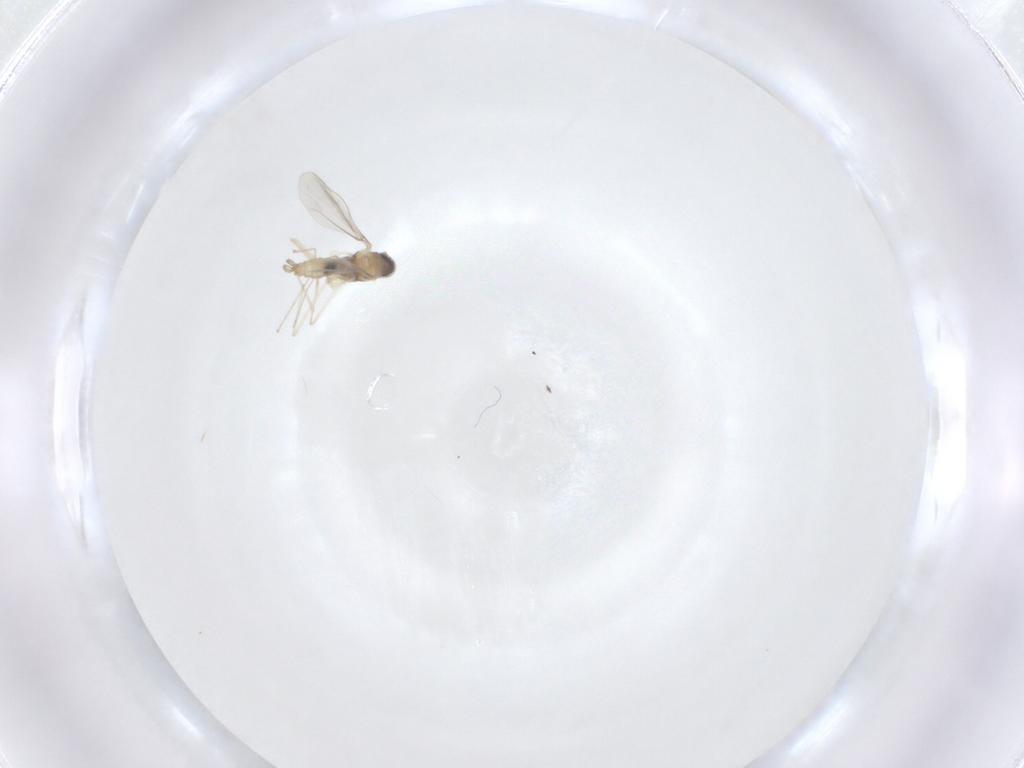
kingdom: Animalia
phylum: Arthropoda
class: Insecta
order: Diptera
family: Cecidomyiidae
